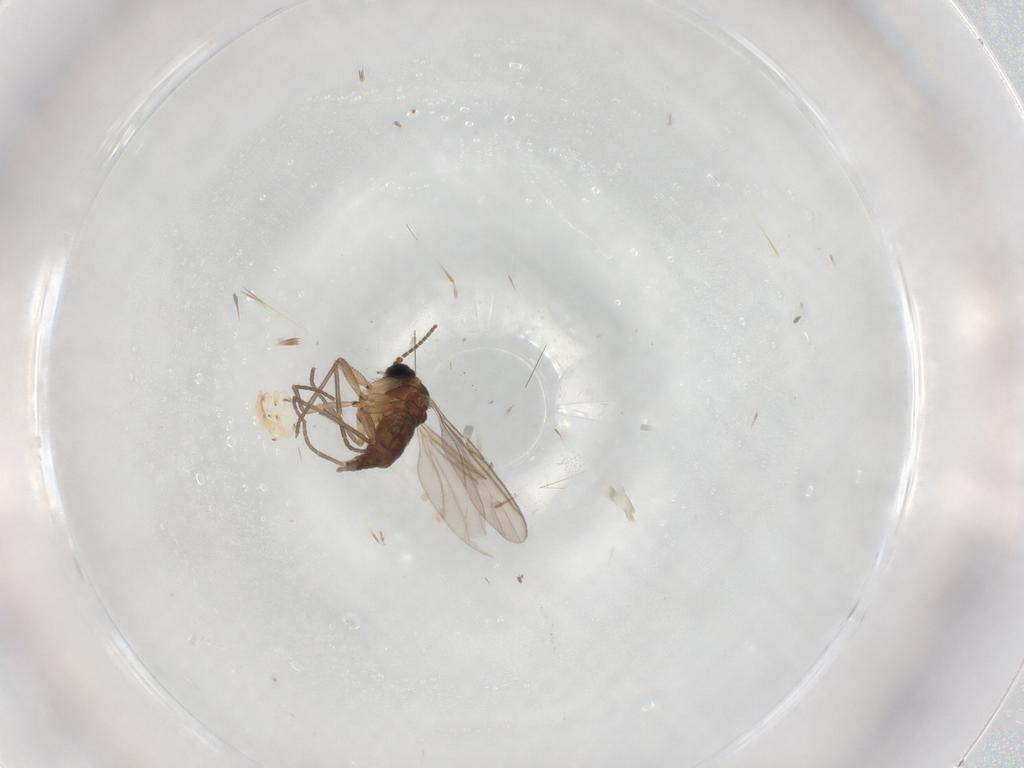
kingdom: Animalia
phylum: Arthropoda
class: Insecta
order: Diptera
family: Sciaridae
